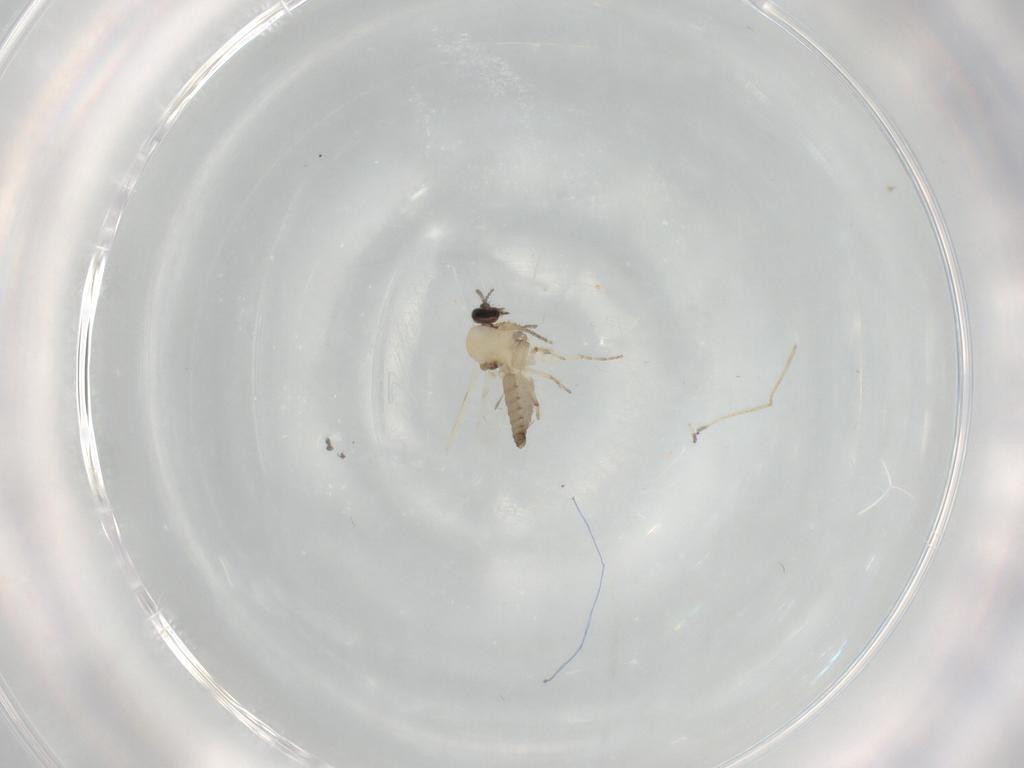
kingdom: Animalia
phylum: Arthropoda
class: Insecta
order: Diptera
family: Ceratopogonidae
